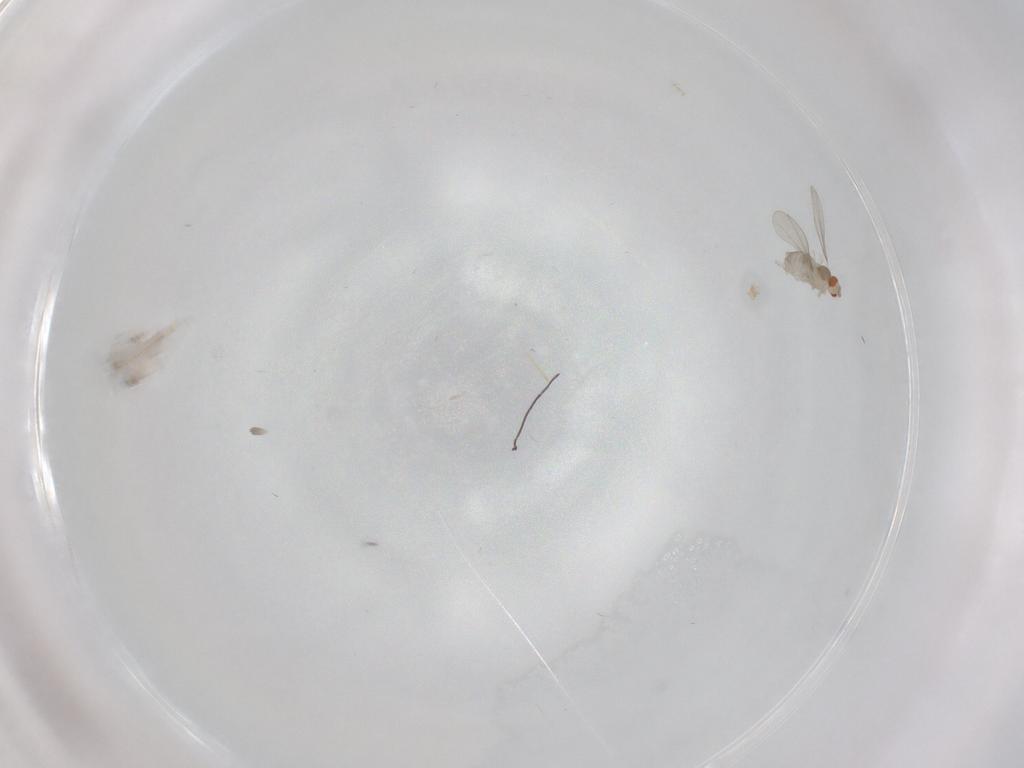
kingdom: Animalia
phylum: Arthropoda
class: Insecta
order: Diptera
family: Cecidomyiidae
